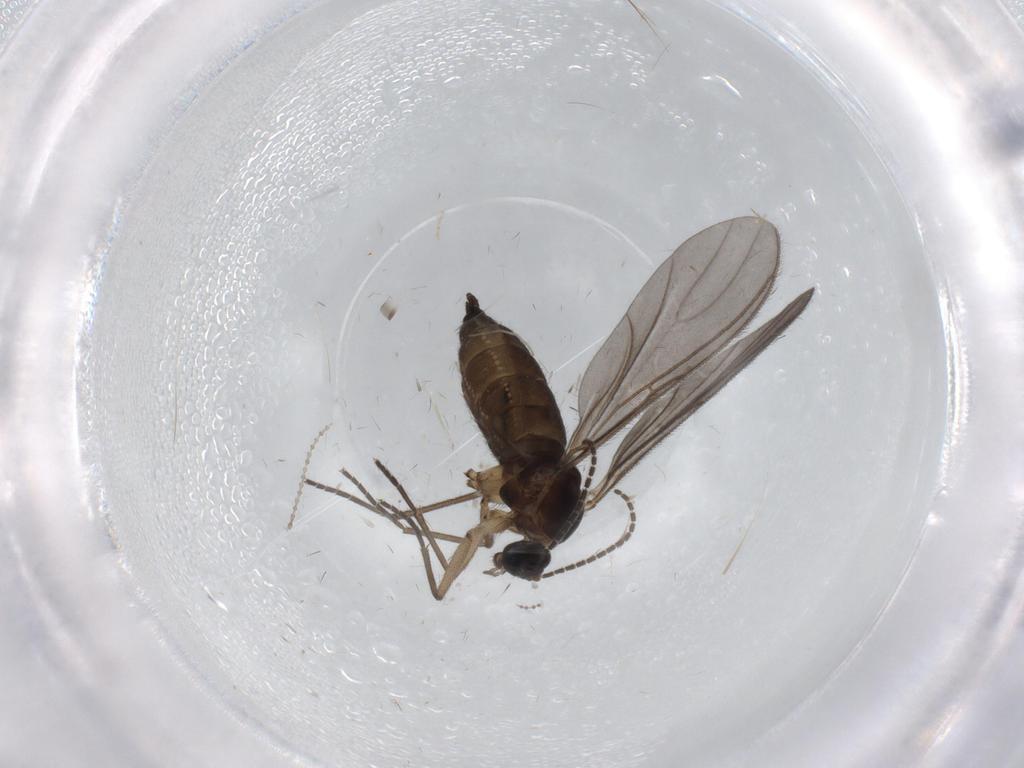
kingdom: Animalia
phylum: Arthropoda
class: Insecta
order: Diptera
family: Sciaridae
